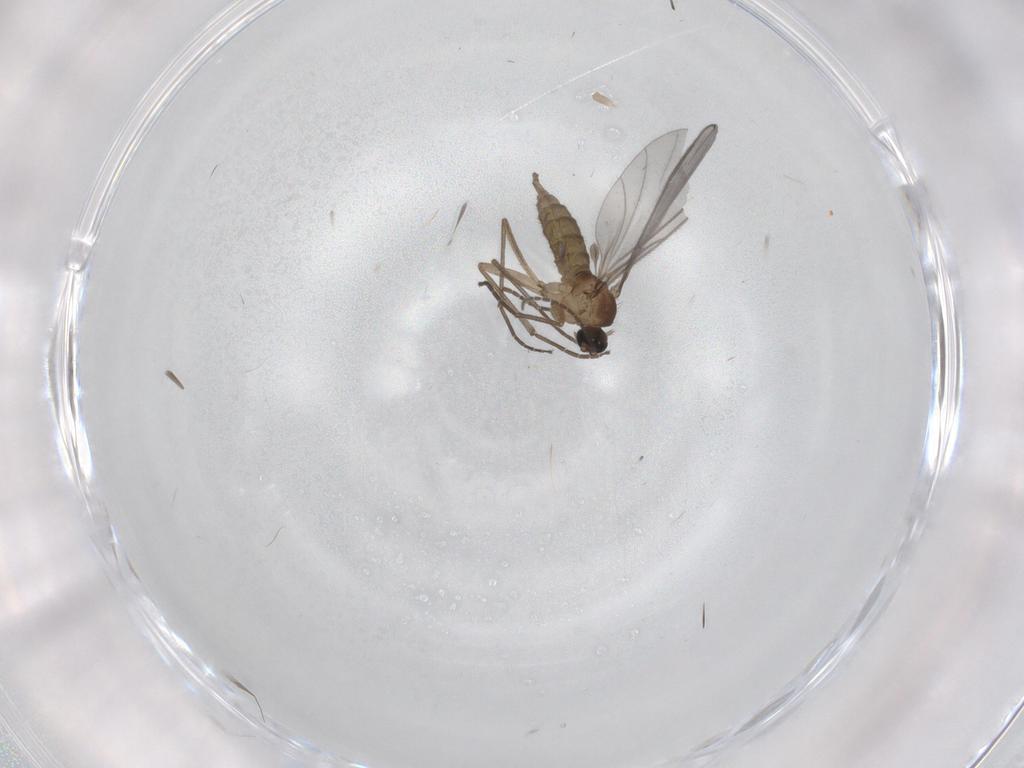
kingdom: Animalia
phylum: Arthropoda
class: Insecta
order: Diptera
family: Sciaridae
